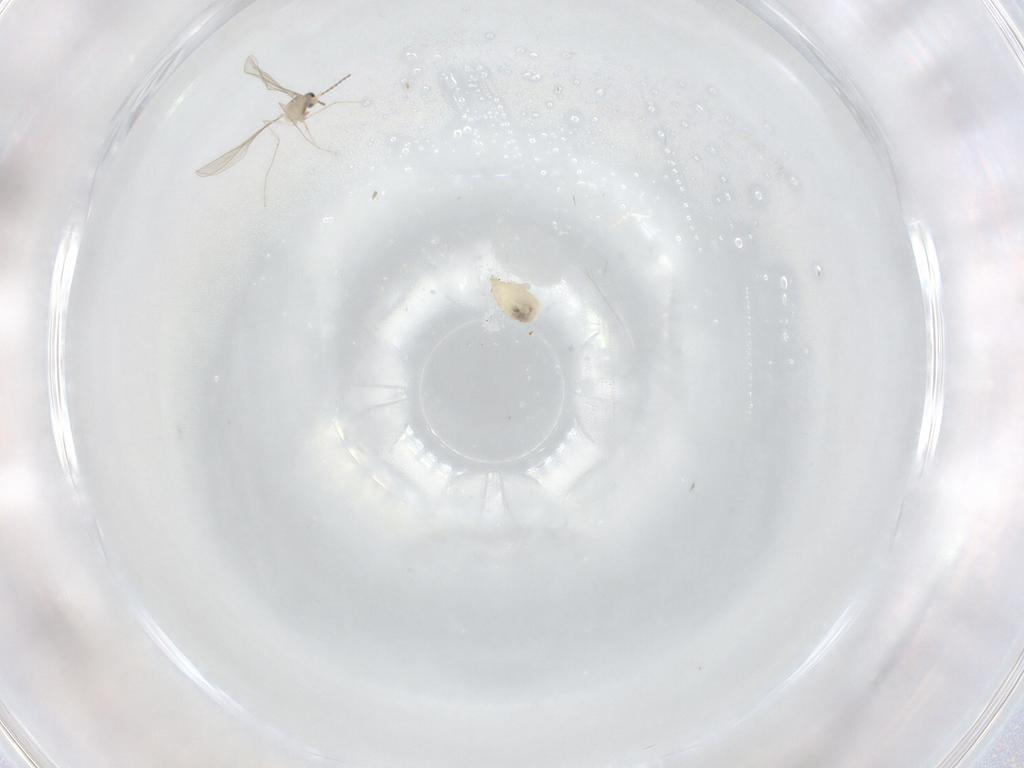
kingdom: Animalia
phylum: Arthropoda
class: Insecta
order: Diptera
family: Cecidomyiidae
